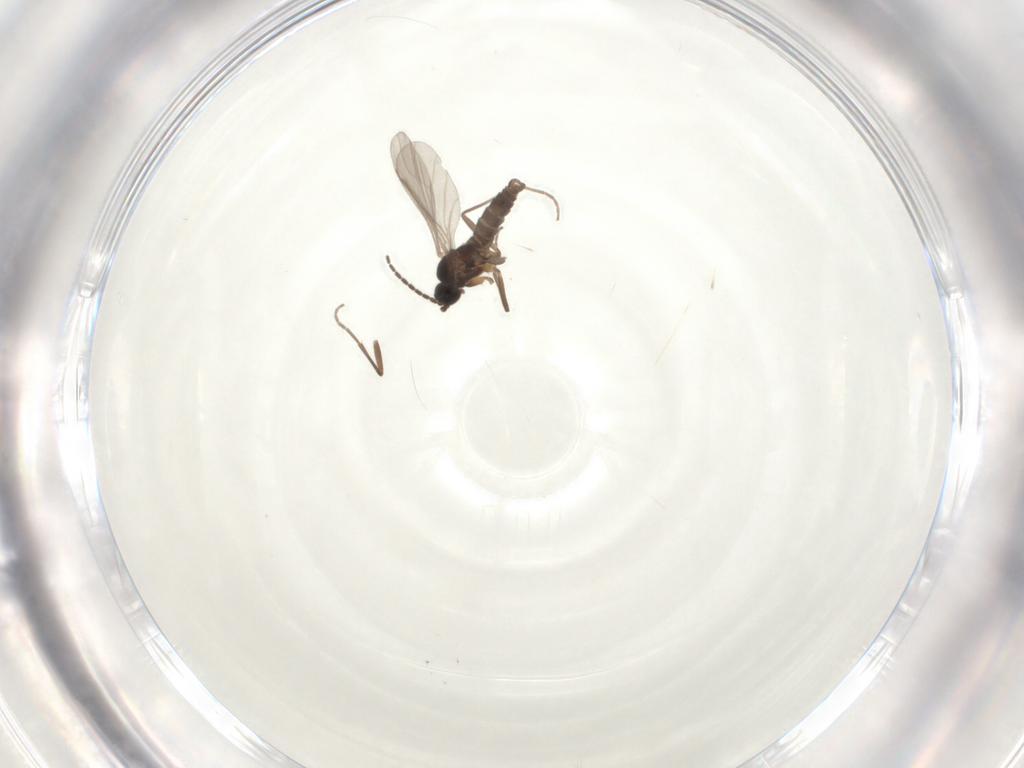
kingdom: Animalia
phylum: Arthropoda
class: Insecta
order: Diptera
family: Sciaridae
